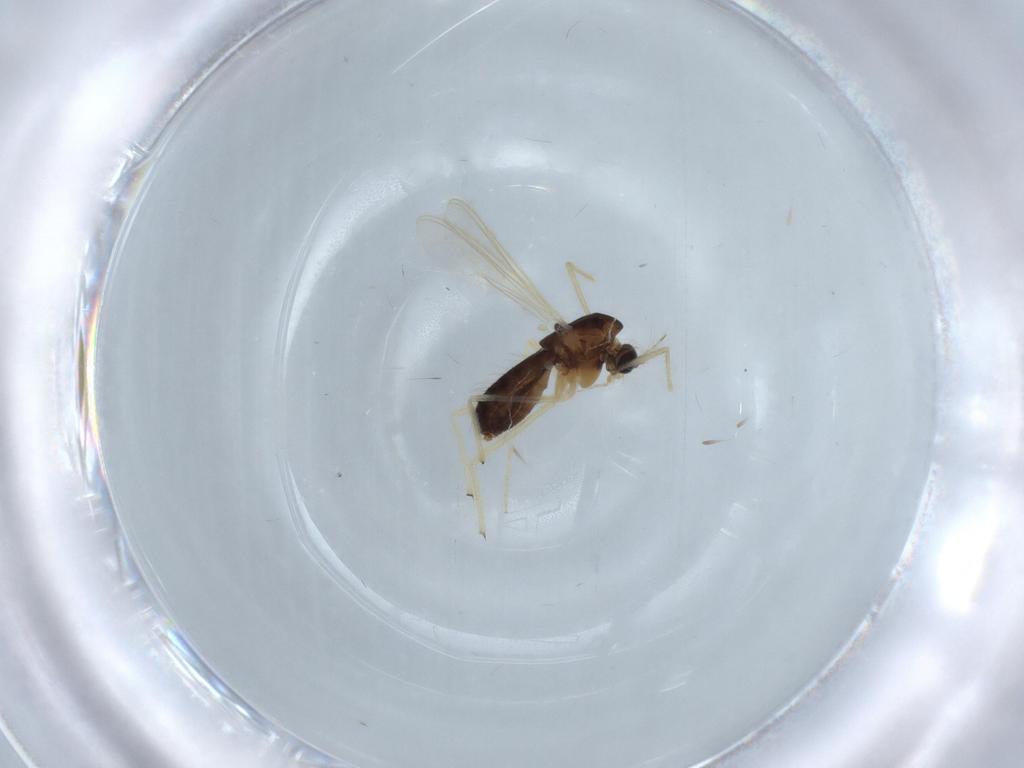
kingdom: Animalia
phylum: Arthropoda
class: Insecta
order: Diptera
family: Chironomidae
